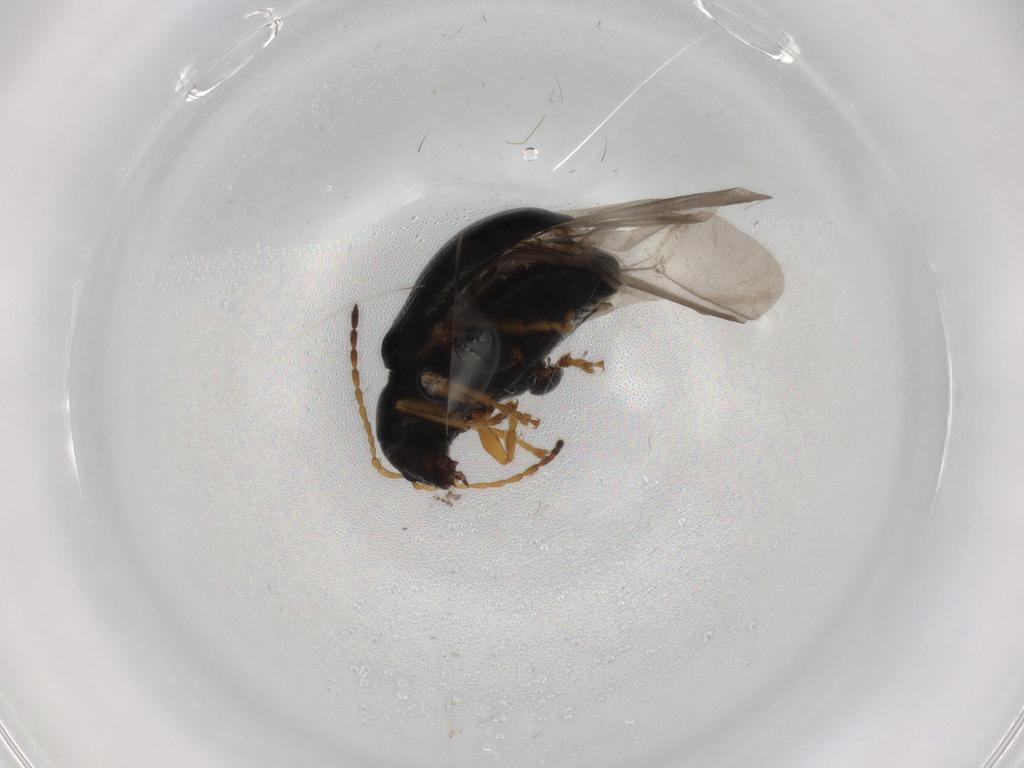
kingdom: Animalia
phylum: Arthropoda
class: Insecta
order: Coleoptera
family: Chrysomelidae
